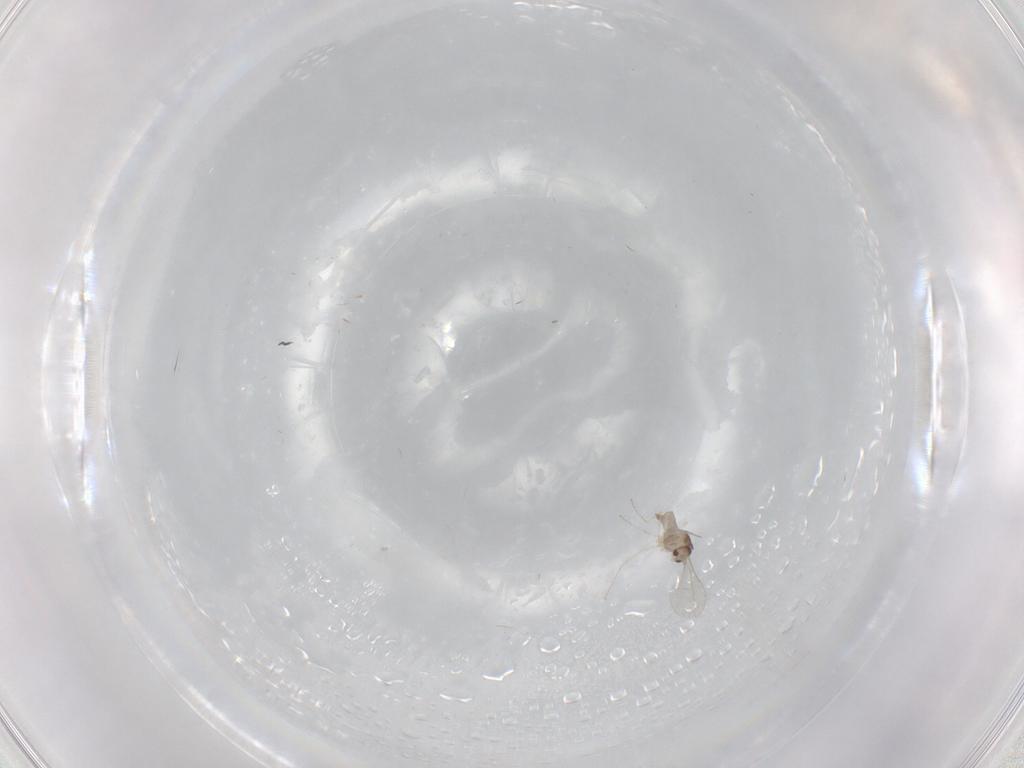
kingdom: Animalia
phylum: Arthropoda
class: Insecta
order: Diptera
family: Cecidomyiidae
